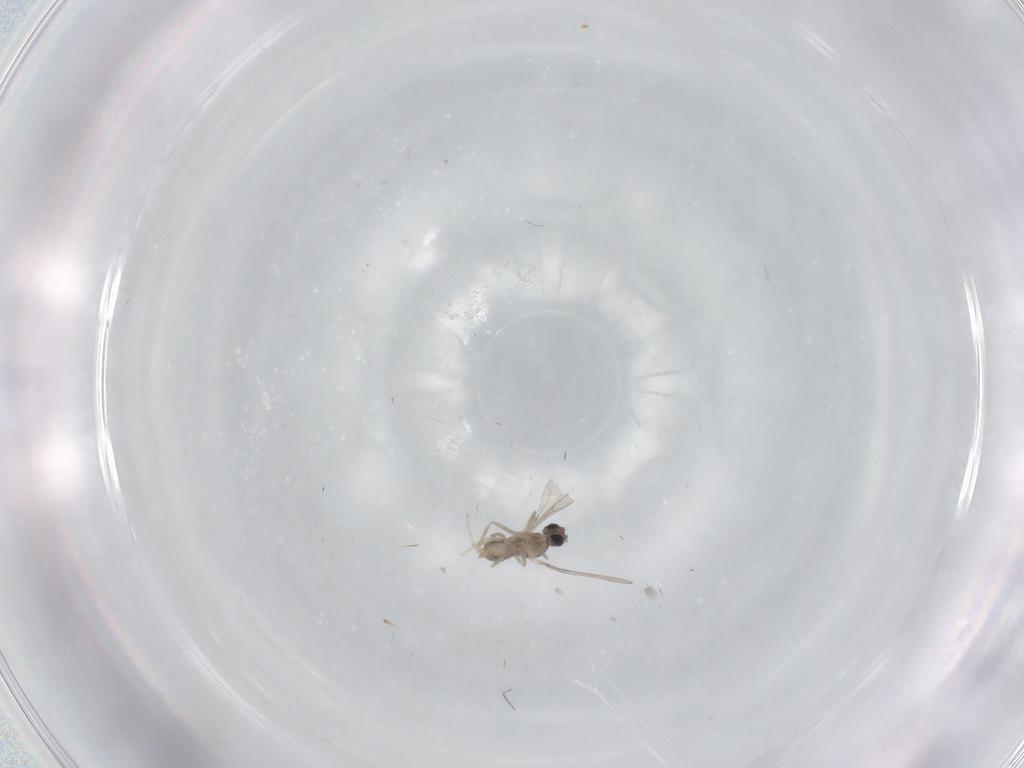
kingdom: Animalia
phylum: Arthropoda
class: Insecta
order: Diptera
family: Cecidomyiidae
